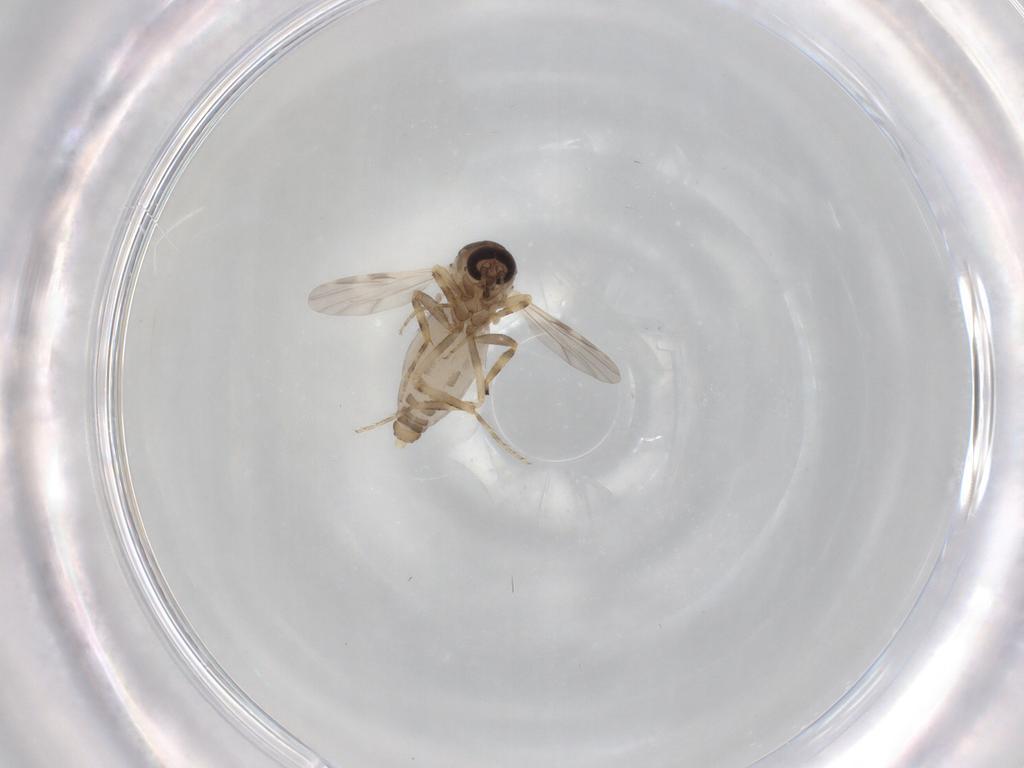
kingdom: Animalia
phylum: Arthropoda
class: Insecta
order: Diptera
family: Ceratopogonidae
